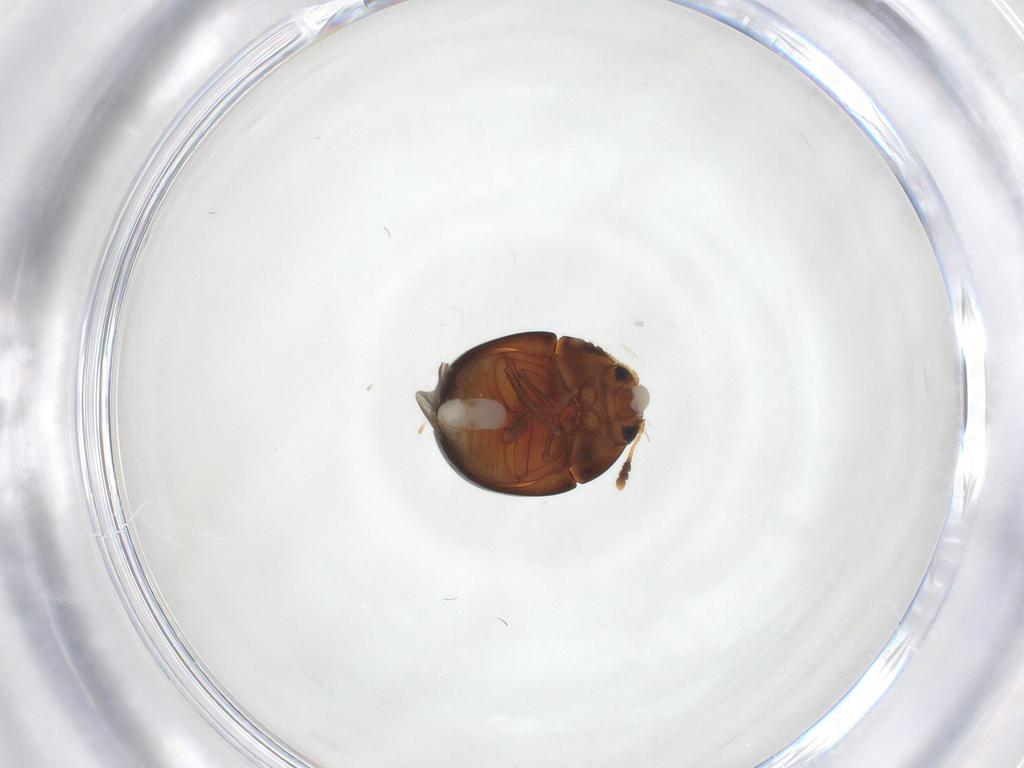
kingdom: Animalia
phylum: Arthropoda
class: Insecta
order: Coleoptera
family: Phalacridae
